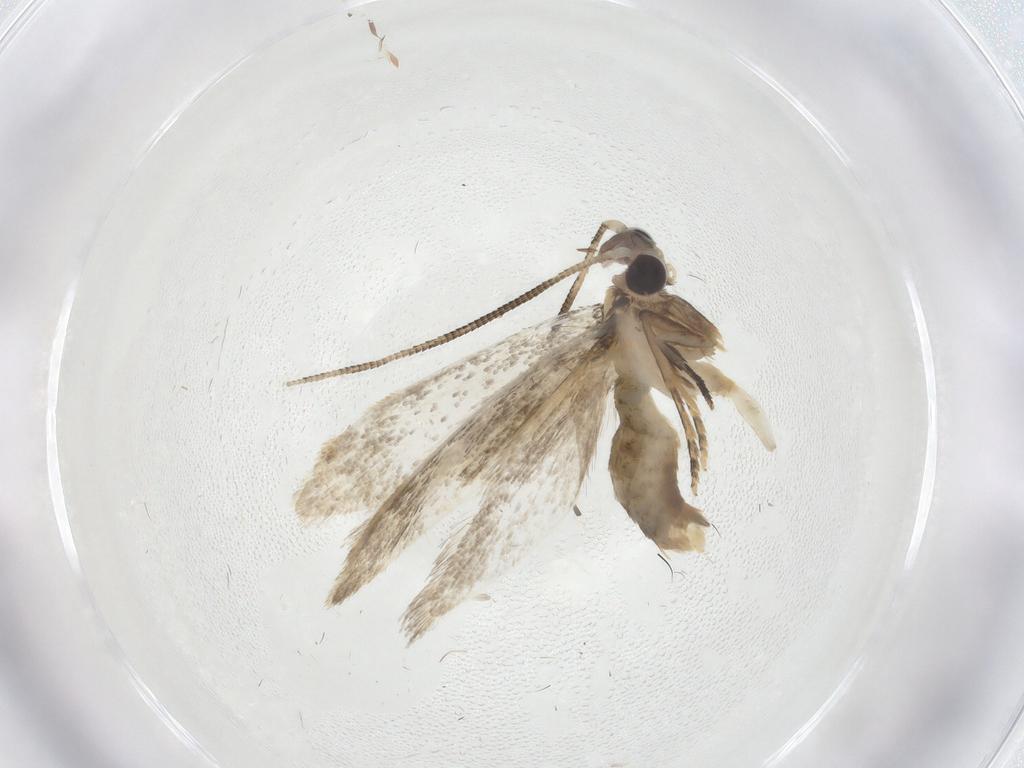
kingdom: Animalia
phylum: Arthropoda
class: Insecta
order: Lepidoptera
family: Tineidae
